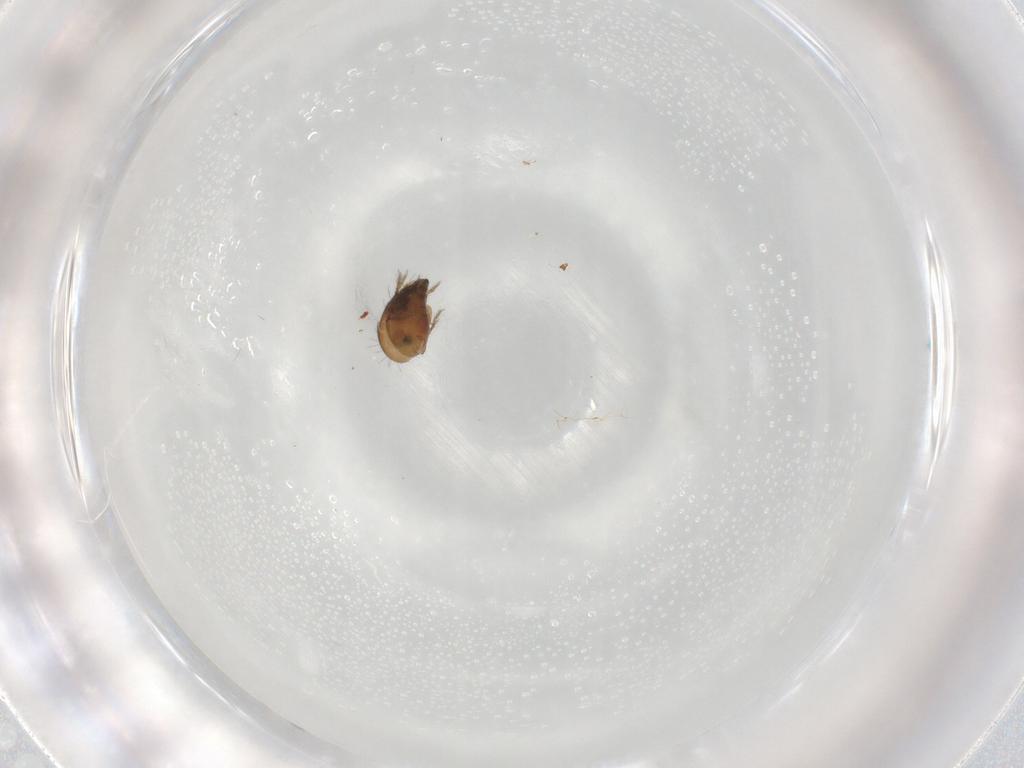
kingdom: Animalia
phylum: Arthropoda
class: Arachnida
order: Sarcoptiformes
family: Humerobatidae
